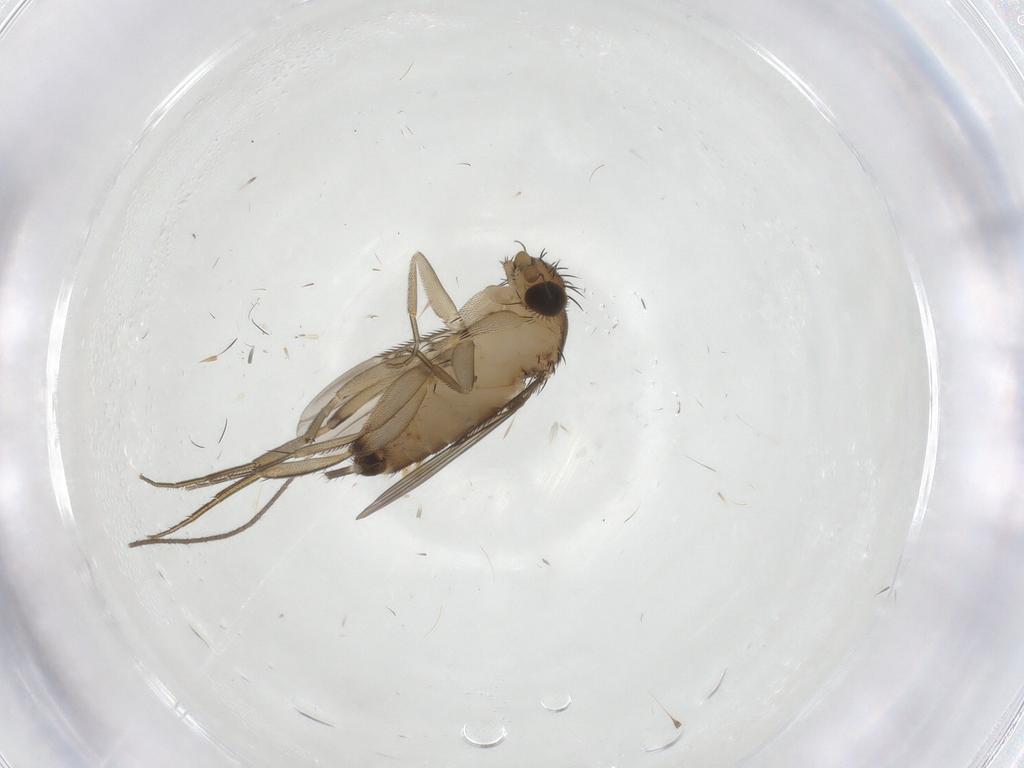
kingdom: Animalia
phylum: Arthropoda
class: Insecta
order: Diptera
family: Phoridae
